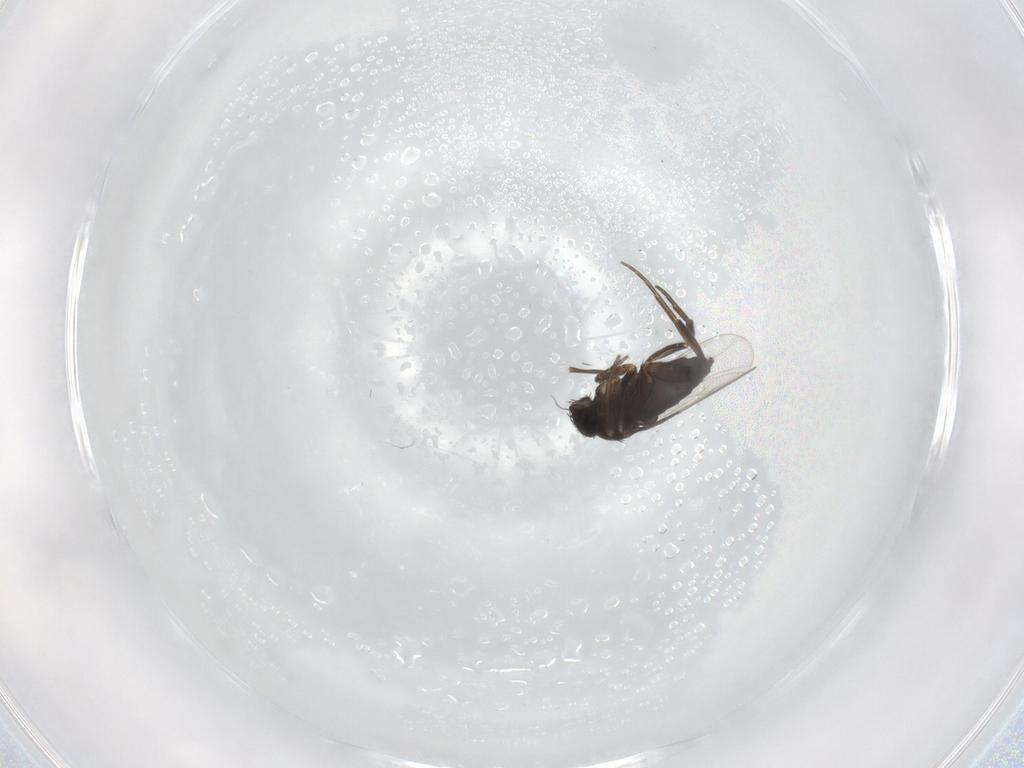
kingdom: Animalia
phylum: Arthropoda
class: Insecta
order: Diptera
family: Phoridae
